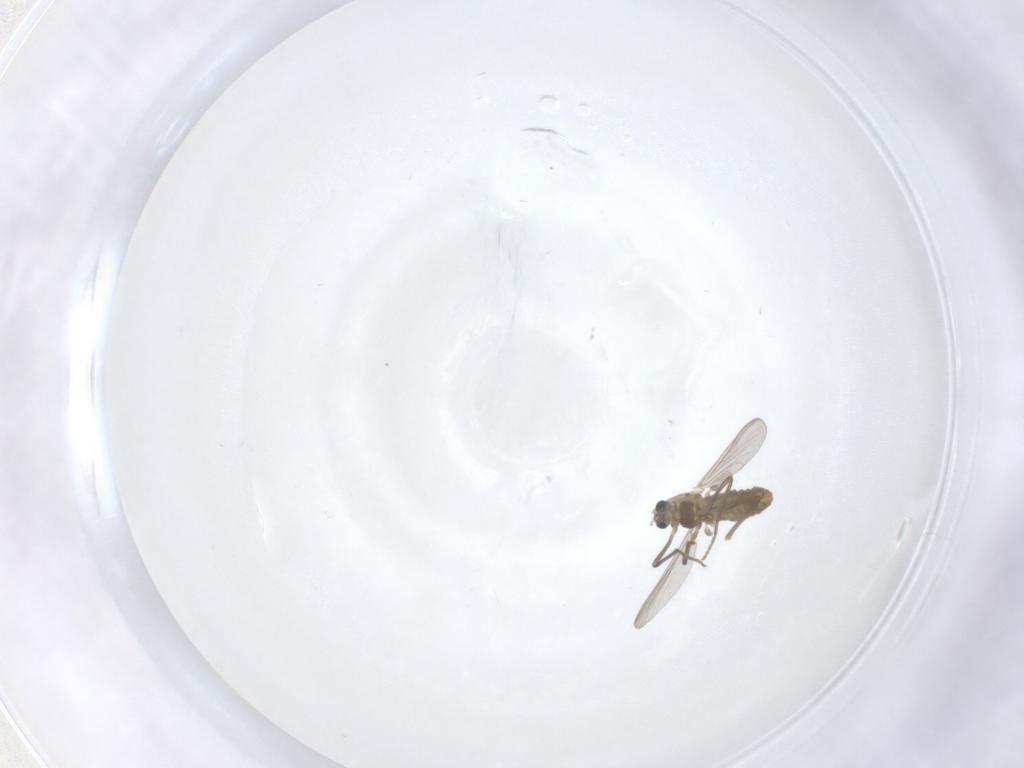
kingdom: Animalia
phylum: Arthropoda
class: Insecta
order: Diptera
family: Chironomidae
